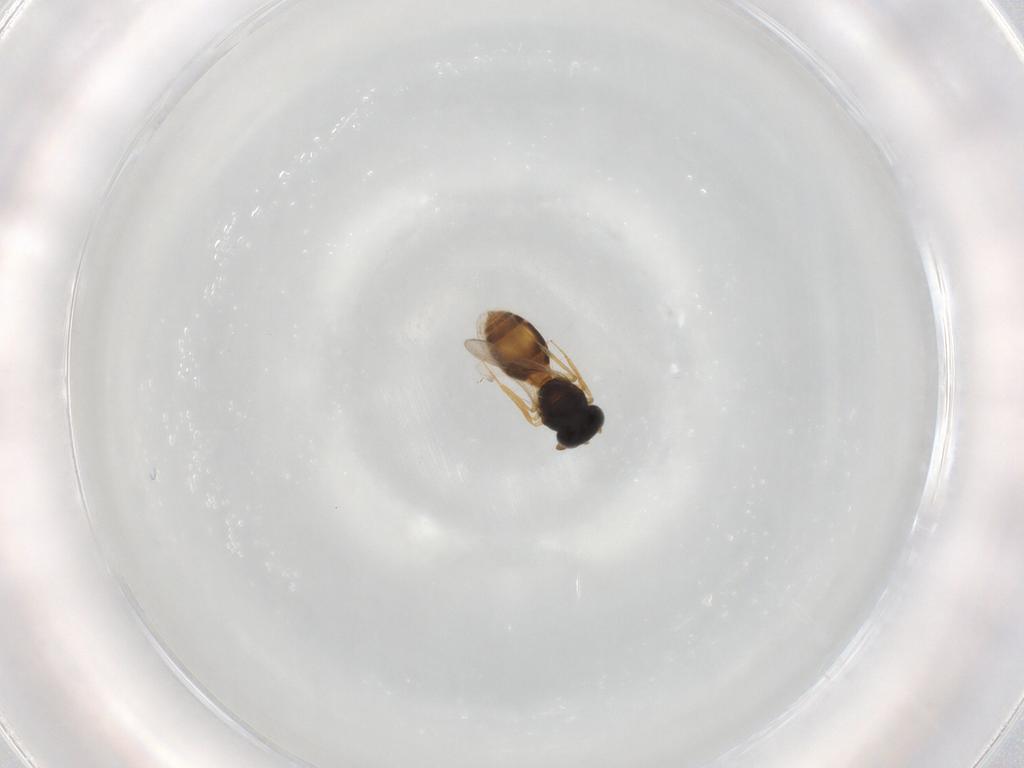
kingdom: Animalia
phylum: Arthropoda
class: Insecta
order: Hymenoptera
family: Scelionidae
